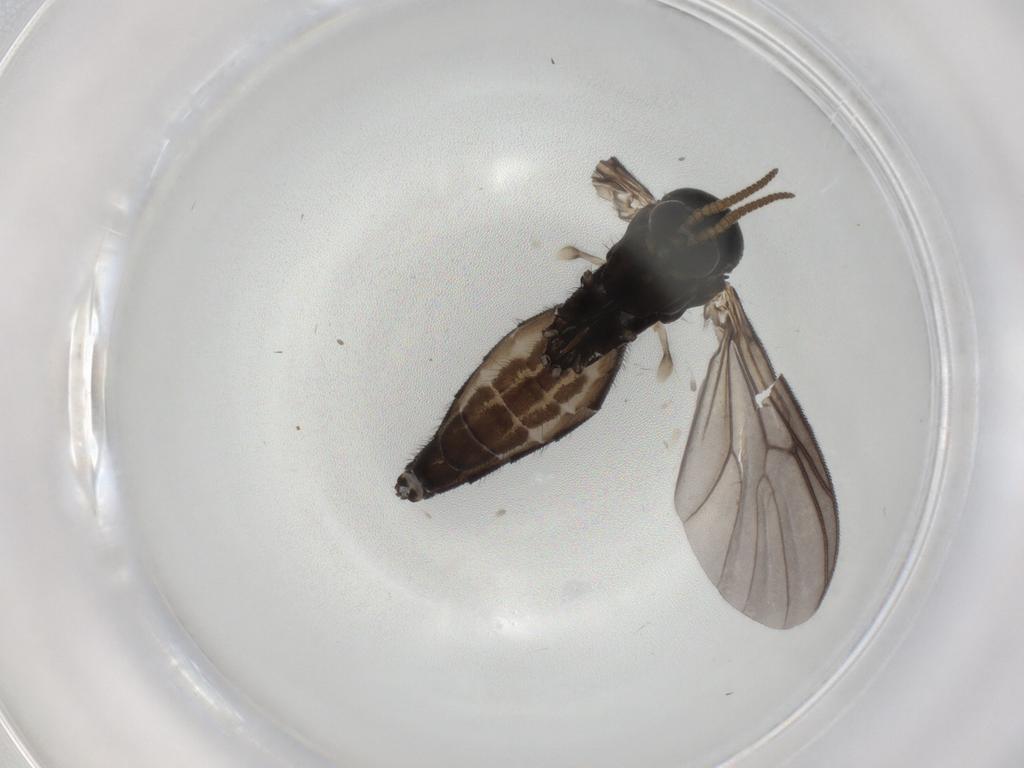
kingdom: Animalia
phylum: Arthropoda
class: Insecta
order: Diptera
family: Mycetophilidae
